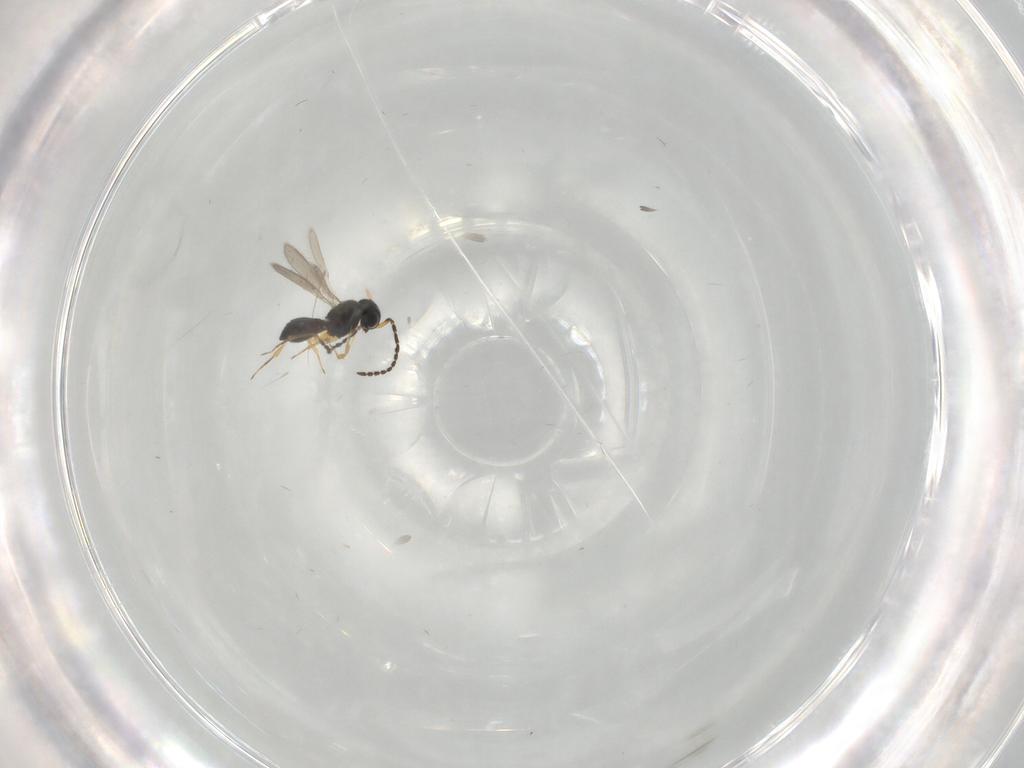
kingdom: Animalia
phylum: Arthropoda
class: Insecta
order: Hymenoptera
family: Scelionidae
